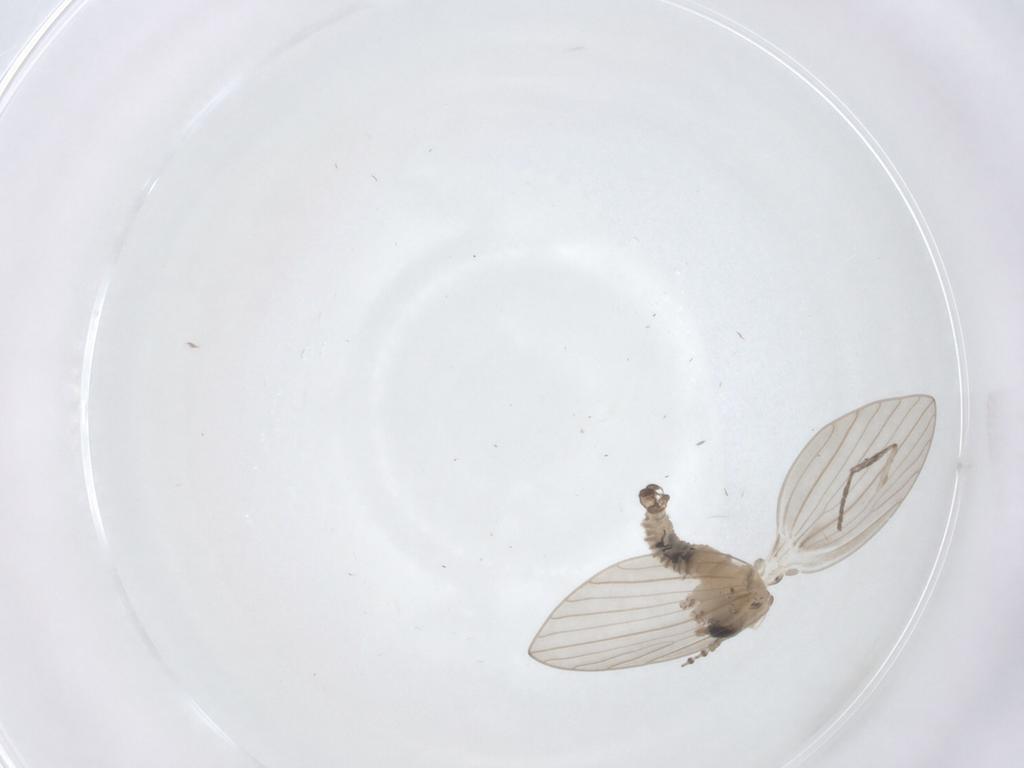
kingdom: Animalia
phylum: Arthropoda
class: Insecta
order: Diptera
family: Psychodidae
